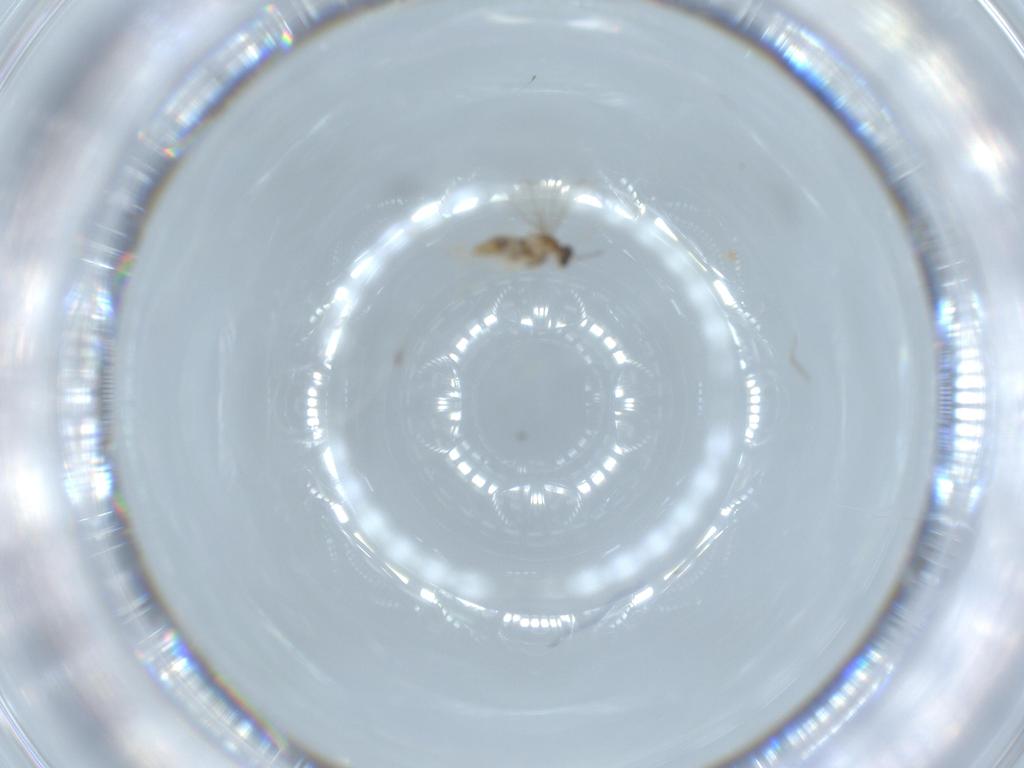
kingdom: Animalia
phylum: Arthropoda
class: Insecta
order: Diptera
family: Cecidomyiidae
